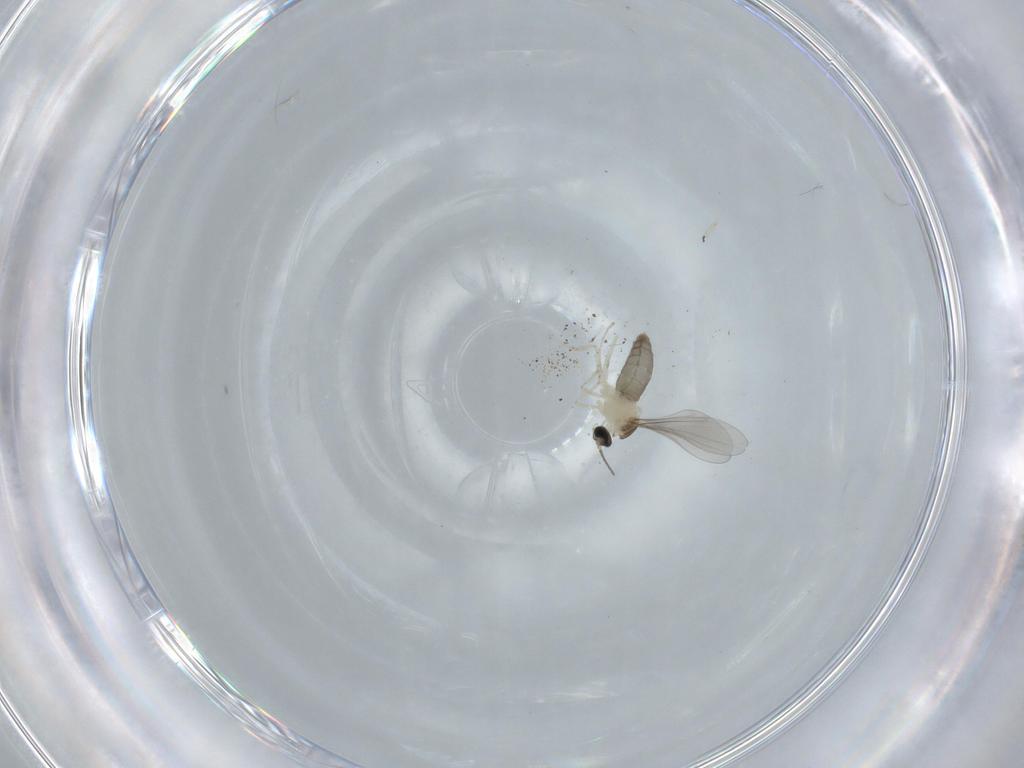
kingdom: Animalia
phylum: Arthropoda
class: Insecta
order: Diptera
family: Cecidomyiidae
